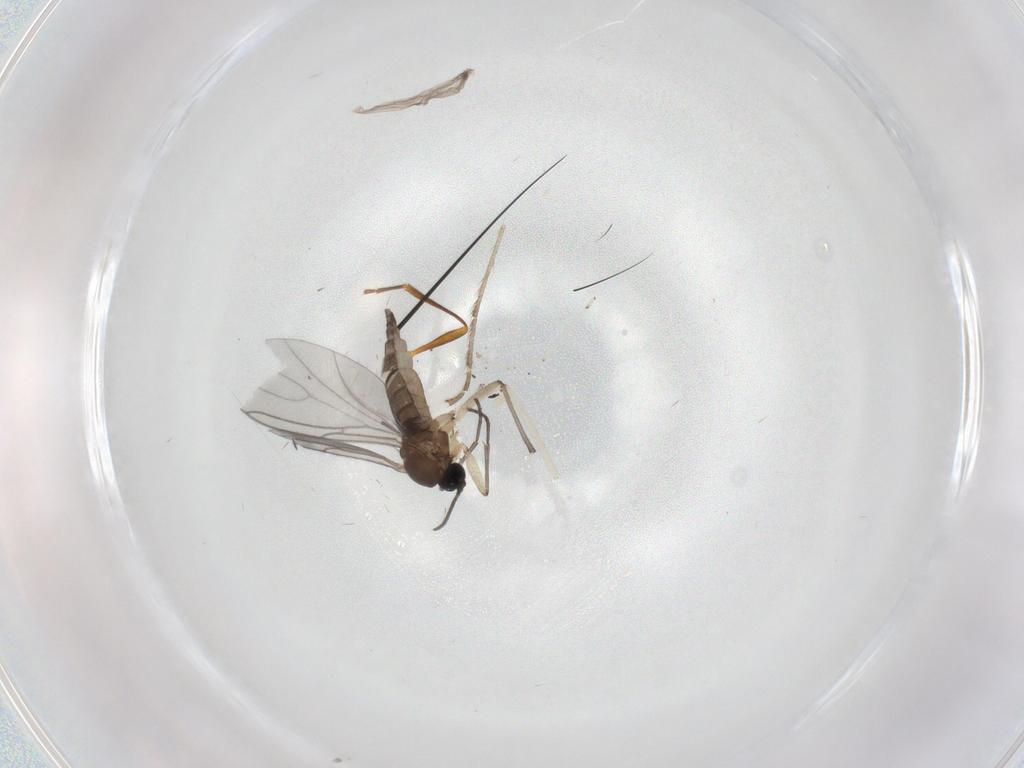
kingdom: Animalia
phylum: Arthropoda
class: Insecta
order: Diptera
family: Sciaridae
